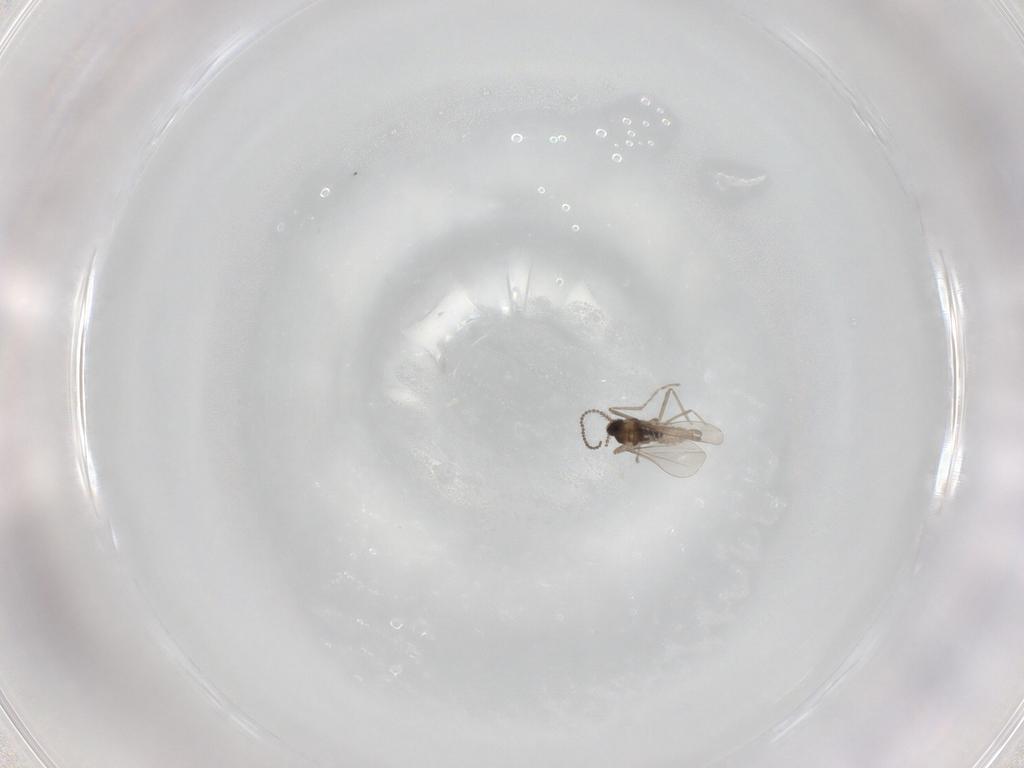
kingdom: Animalia
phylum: Arthropoda
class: Insecta
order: Diptera
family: Cecidomyiidae
